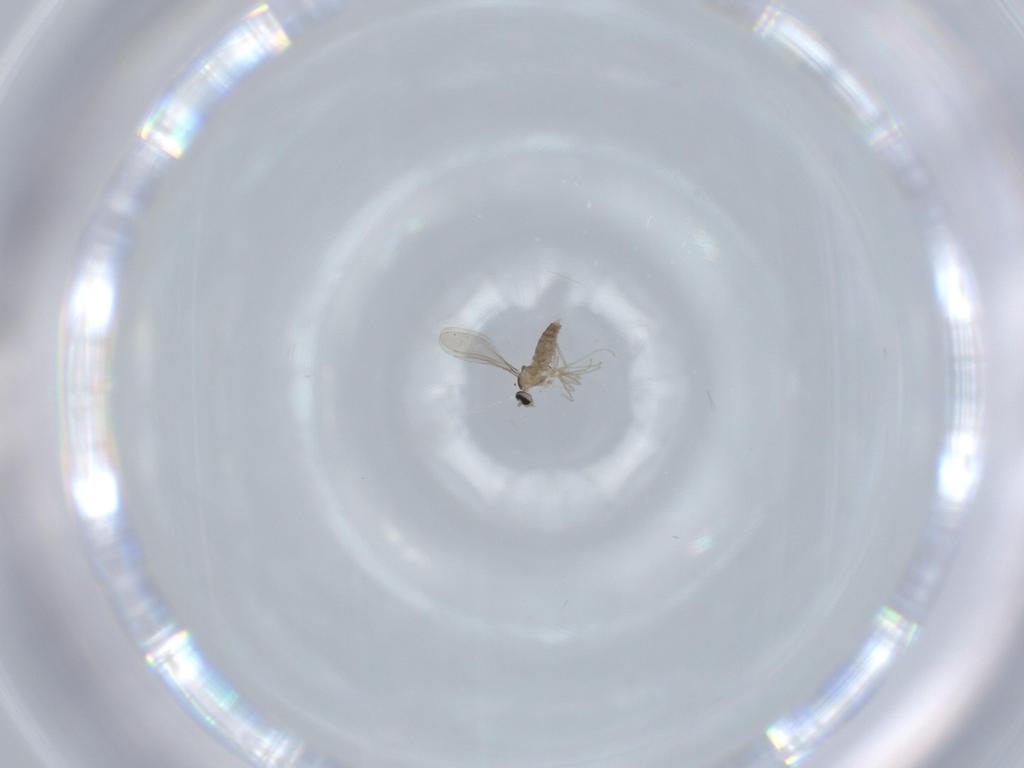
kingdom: Animalia
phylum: Arthropoda
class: Insecta
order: Diptera
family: Cecidomyiidae
